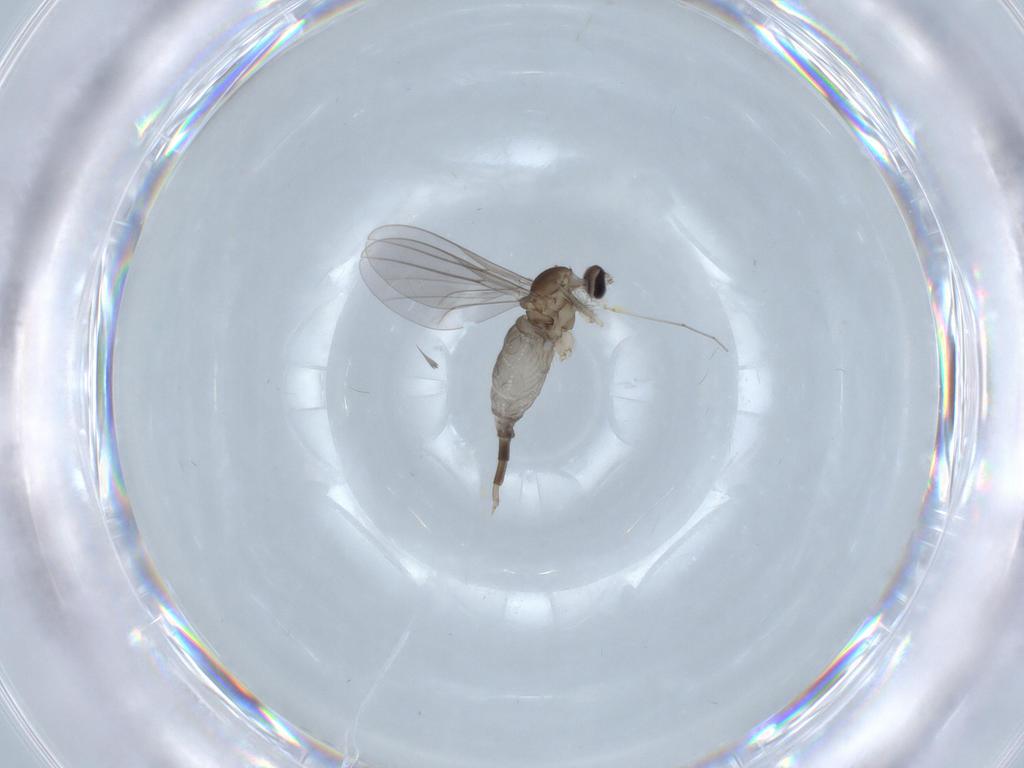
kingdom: Animalia
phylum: Arthropoda
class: Insecta
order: Diptera
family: Cecidomyiidae
